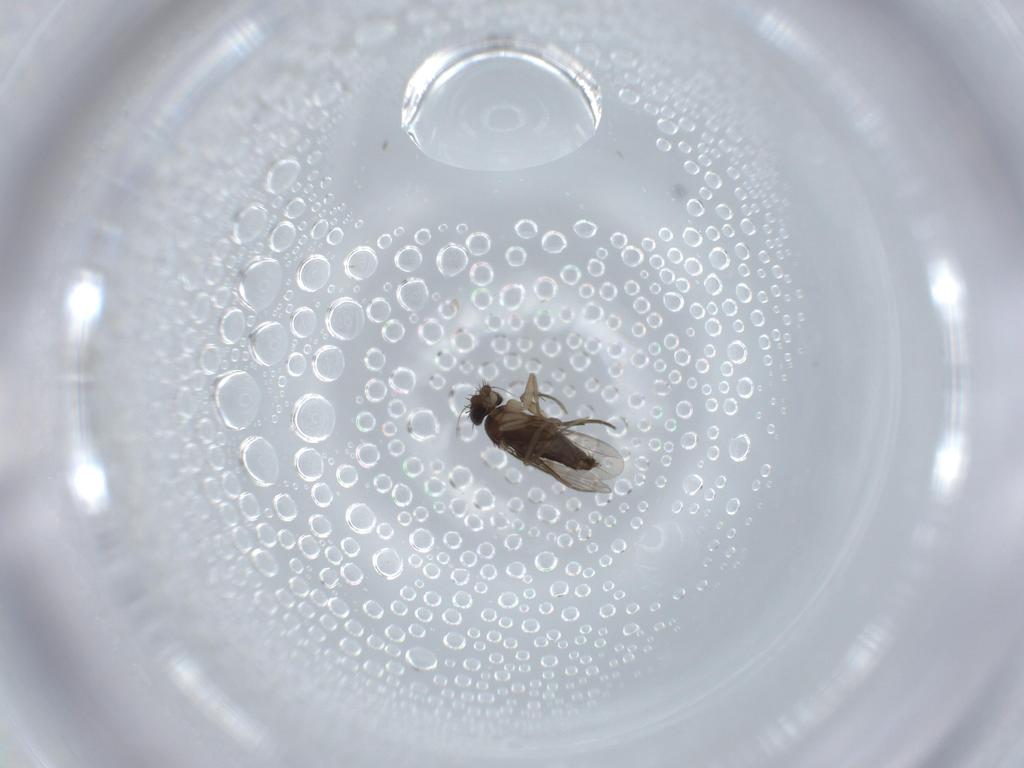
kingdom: Animalia
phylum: Arthropoda
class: Insecta
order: Diptera
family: Phoridae
